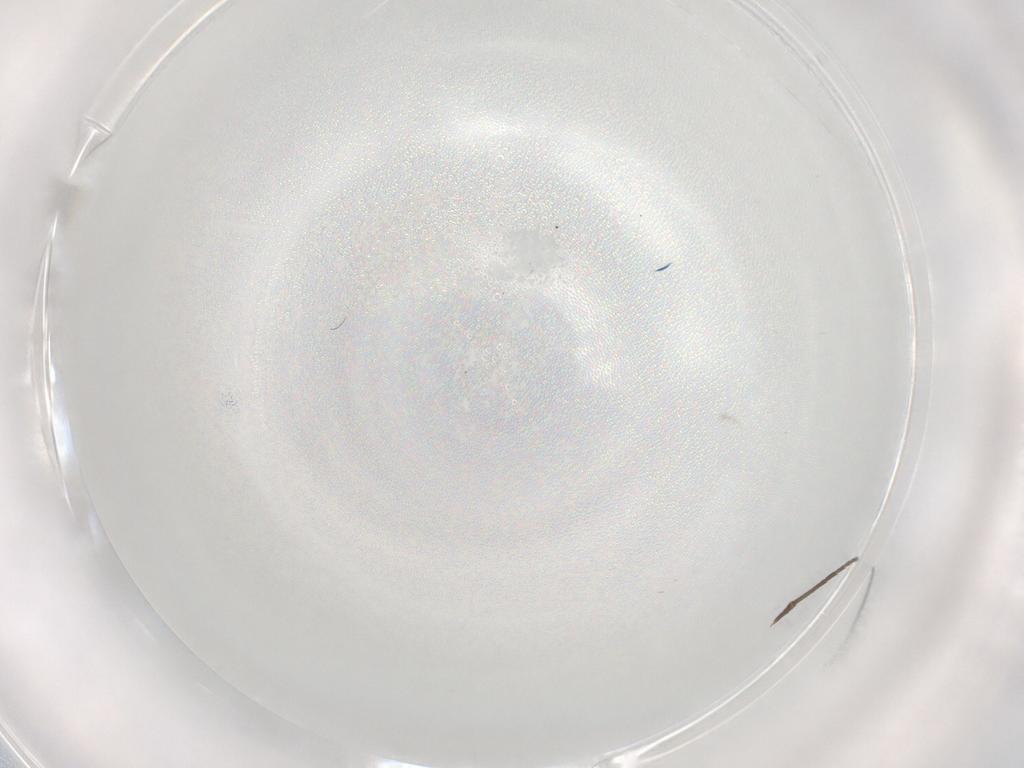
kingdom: Animalia
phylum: Arthropoda
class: Insecta
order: Diptera
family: Sciaridae
